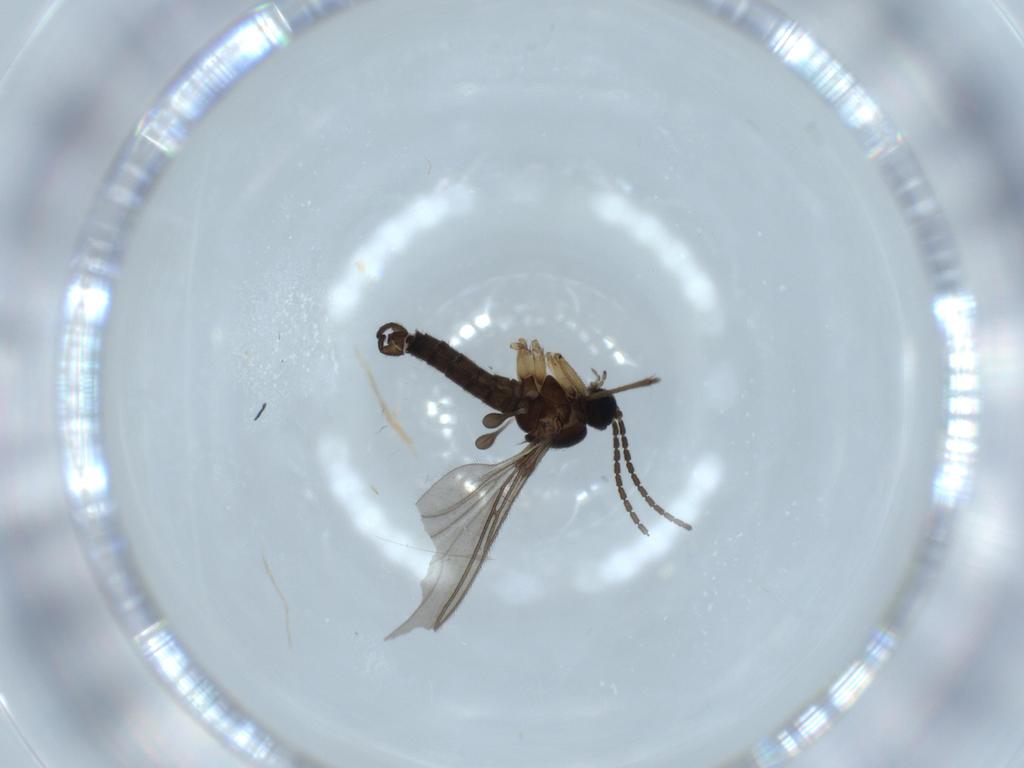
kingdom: Animalia
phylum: Arthropoda
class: Insecta
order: Diptera
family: Sciaridae
